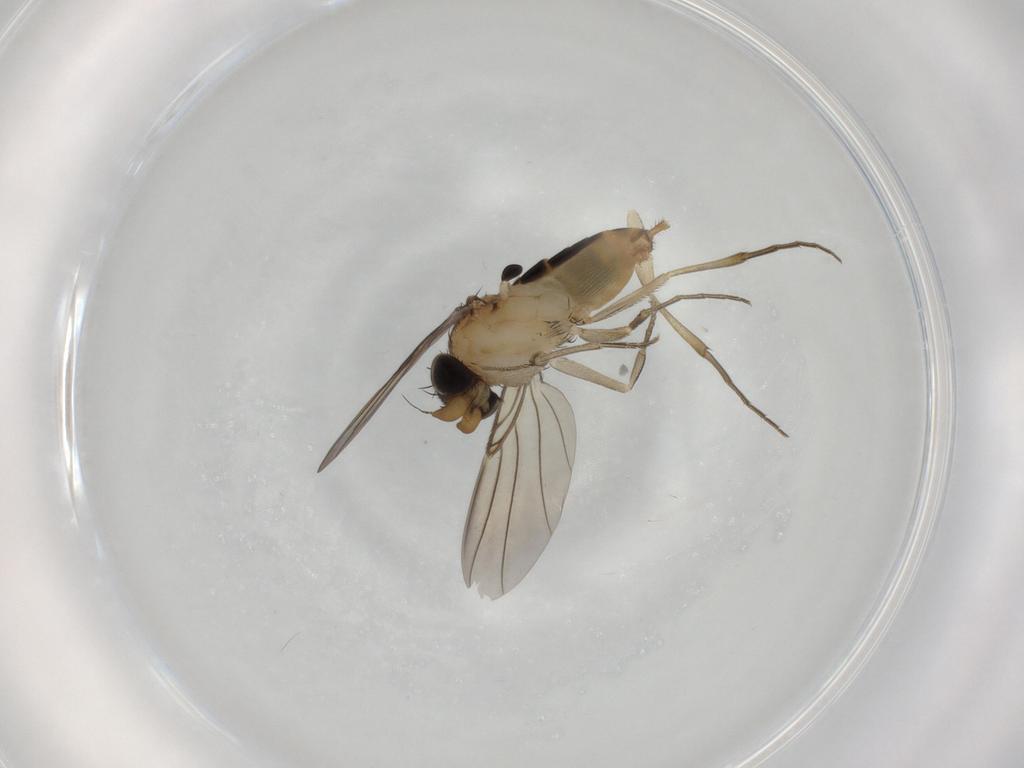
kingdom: Animalia
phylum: Arthropoda
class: Insecta
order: Diptera
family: Phoridae
